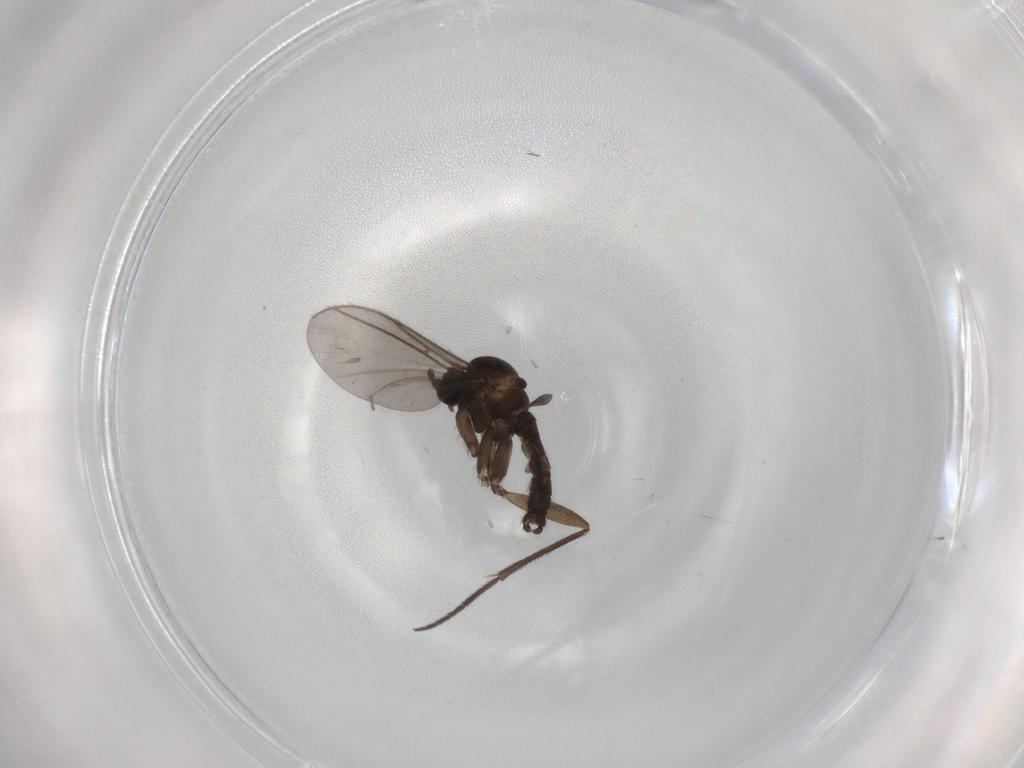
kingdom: Animalia
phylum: Arthropoda
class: Insecta
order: Diptera
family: Sciaridae
